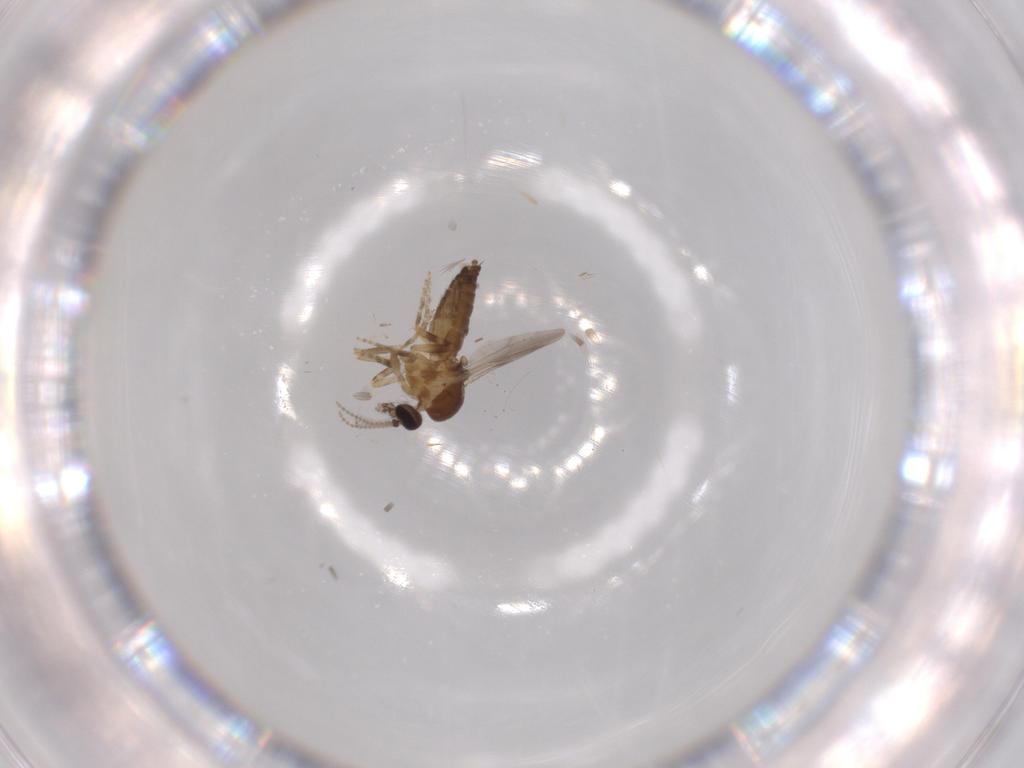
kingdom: Animalia
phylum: Arthropoda
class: Insecta
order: Diptera
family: Ceratopogonidae
